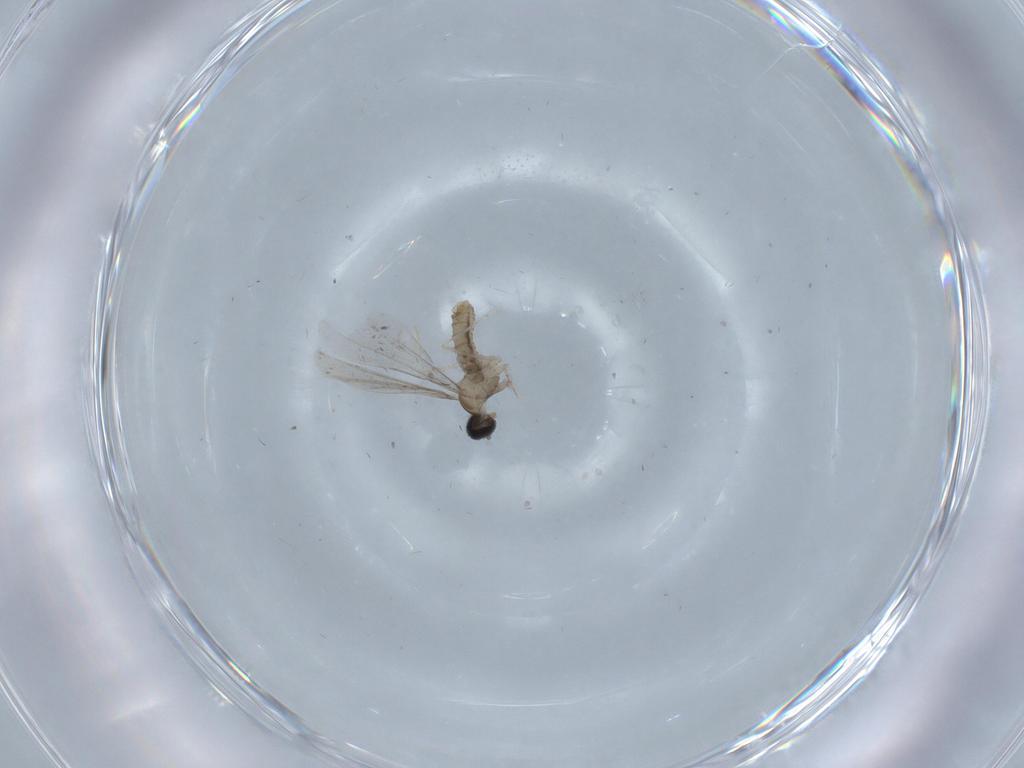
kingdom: Animalia
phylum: Arthropoda
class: Insecta
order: Diptera
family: Cecidomyiidae
